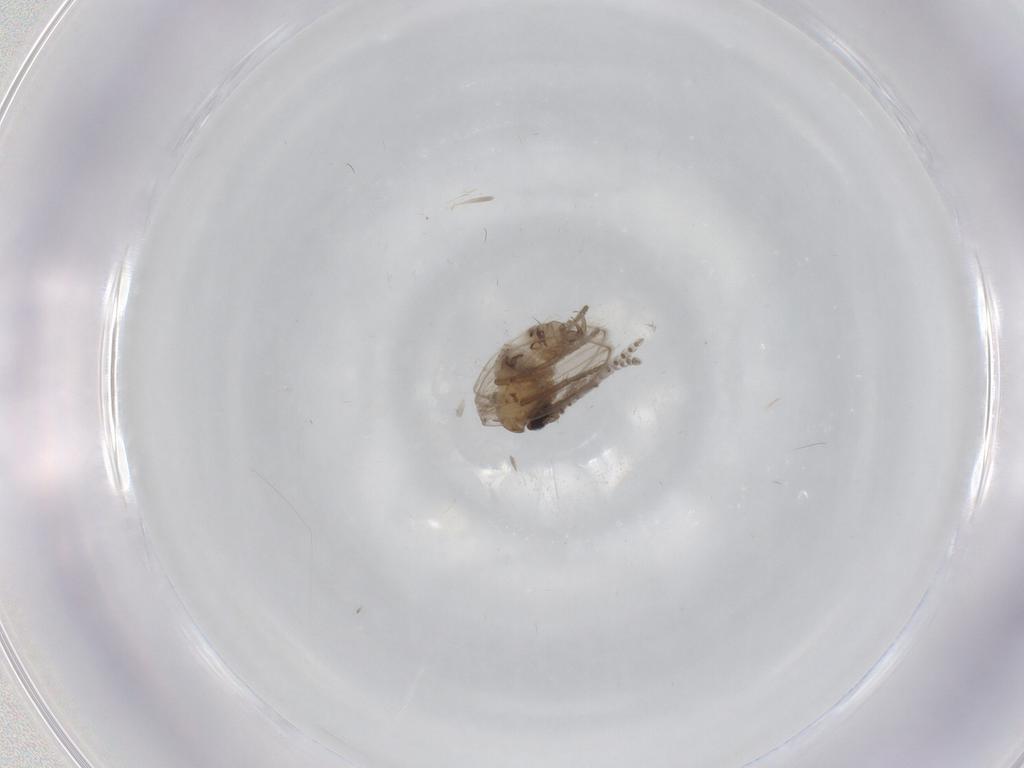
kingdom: Animalia
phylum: Arthropoda
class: Insecta
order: Diptera
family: Psychodidae
